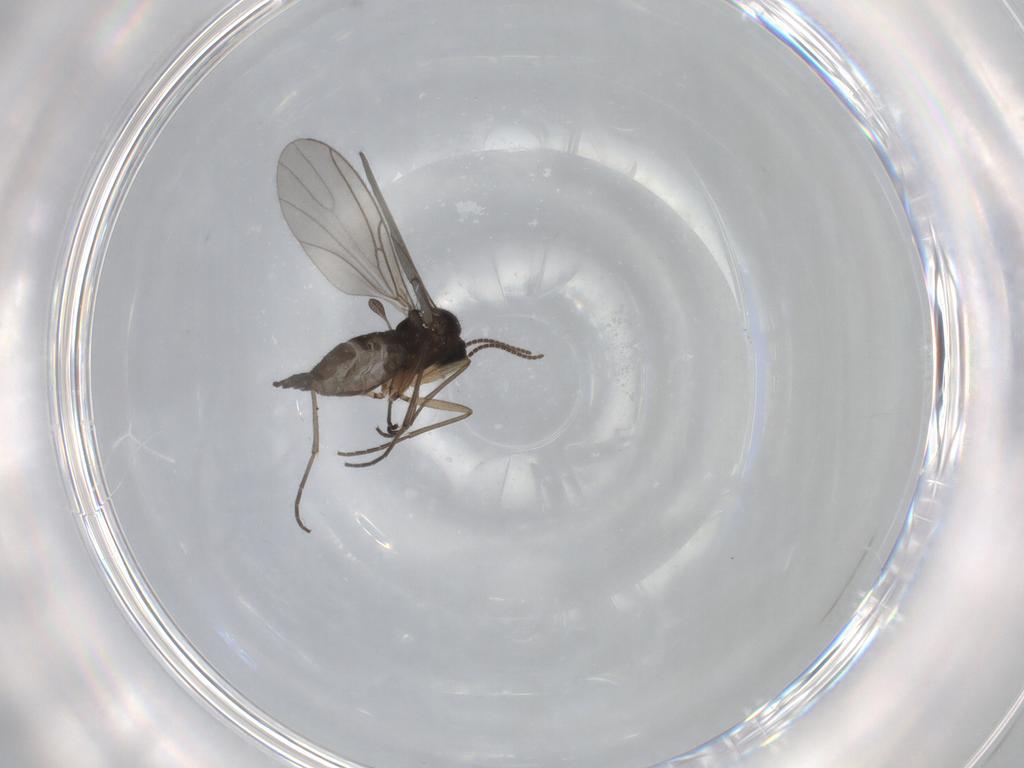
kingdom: Animalia
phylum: Arthropoda
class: Insecta
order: Diptera
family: Sciaridae
